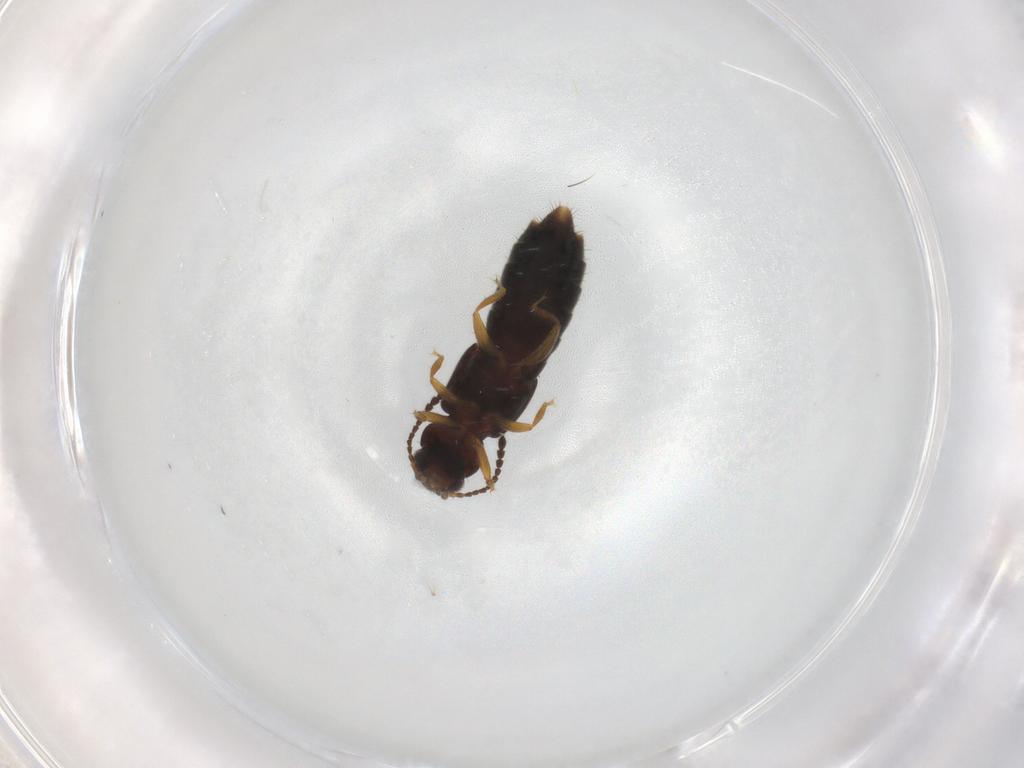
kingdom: Animalia
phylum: Arthropoda
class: Insecta
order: Coleoptera
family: Staphylinidae
